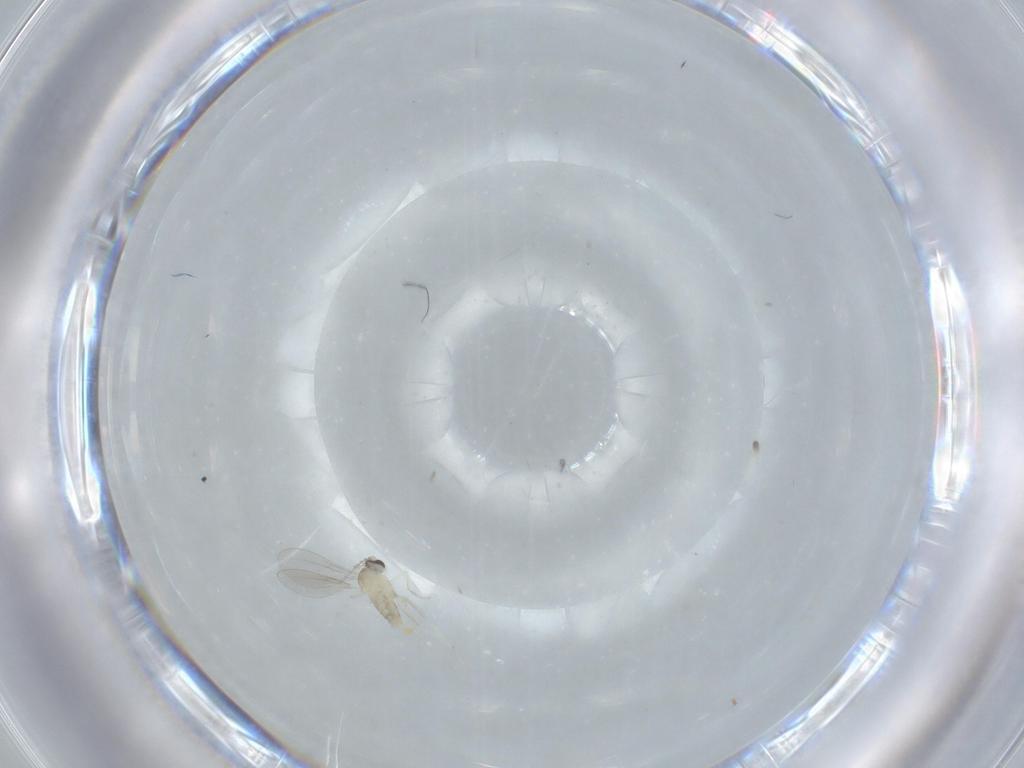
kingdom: Animalia
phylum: Arthropoda
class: Insecta
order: Diptera
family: Cecidomyiidae
